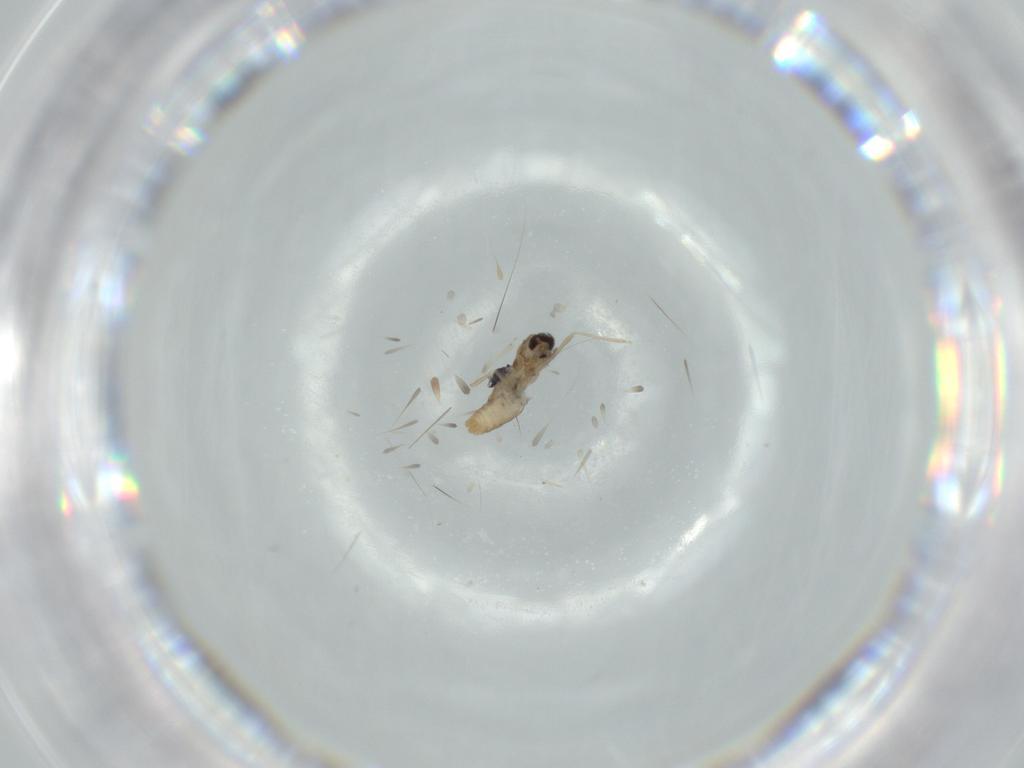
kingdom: Animalia
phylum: Arthropoda
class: Insecta
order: Diptera
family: Cecidomyiidae
